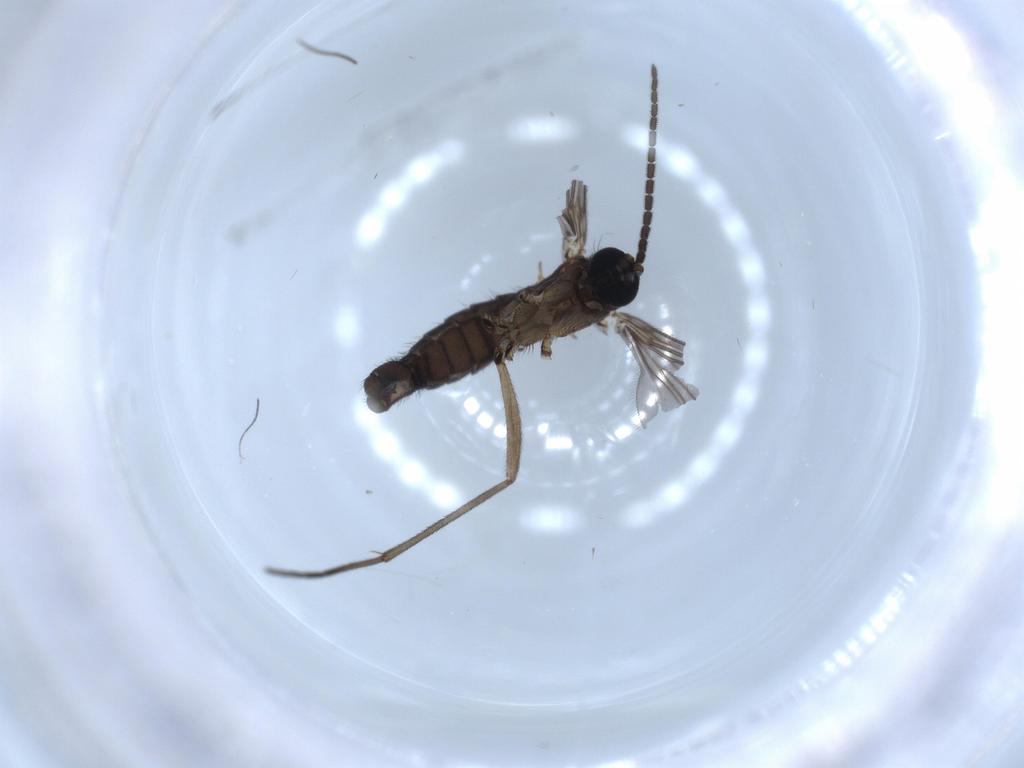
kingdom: Animalia
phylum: Arthropoda
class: Insecta
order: Diptera
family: Sciaridae
